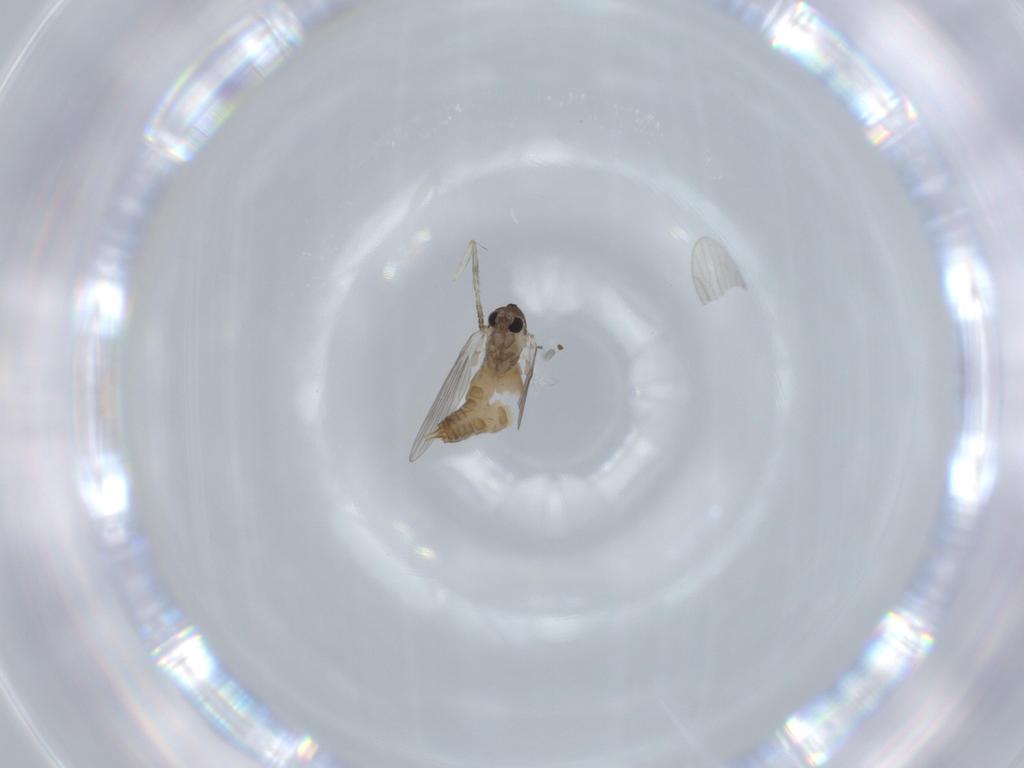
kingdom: Animalia
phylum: Arthropoda
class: Insecta
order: Diptera
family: Psychodidae
